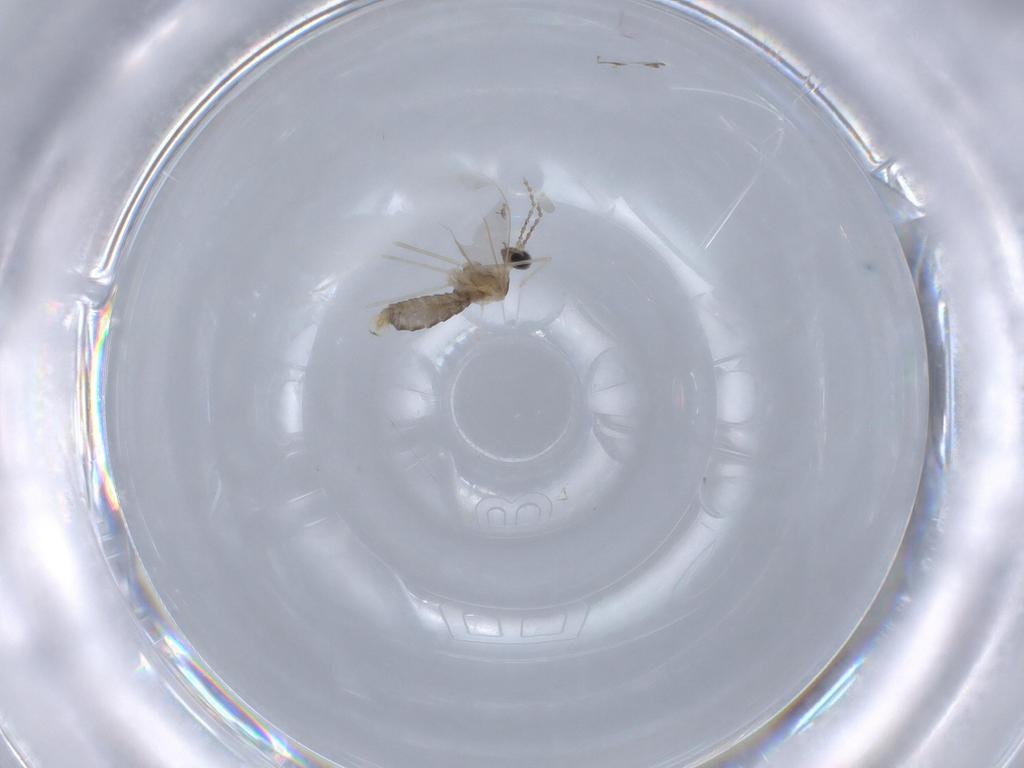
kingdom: Animalia
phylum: Arthropoda
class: Insecta
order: Diptera
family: Cecidomyiidae
